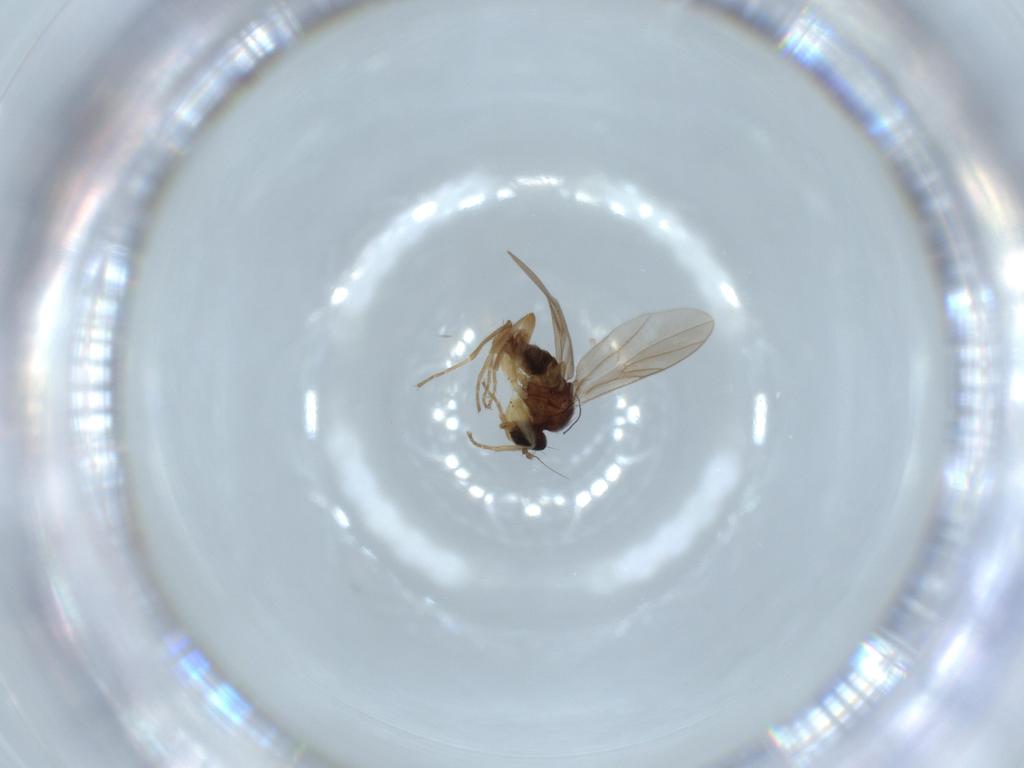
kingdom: Animalia
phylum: Arthropoda
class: Insecta
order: Diptera
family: Hybotidae
